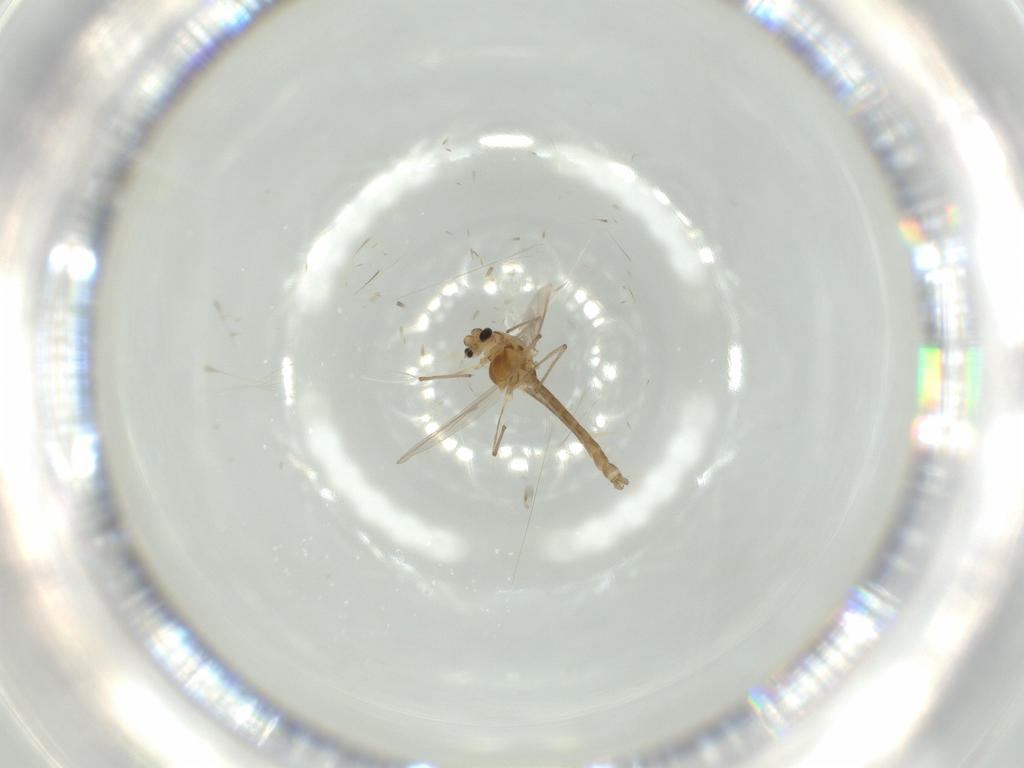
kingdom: Animalia
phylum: Arthropoda
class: Insecta
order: Diptera
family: Chironomidae
